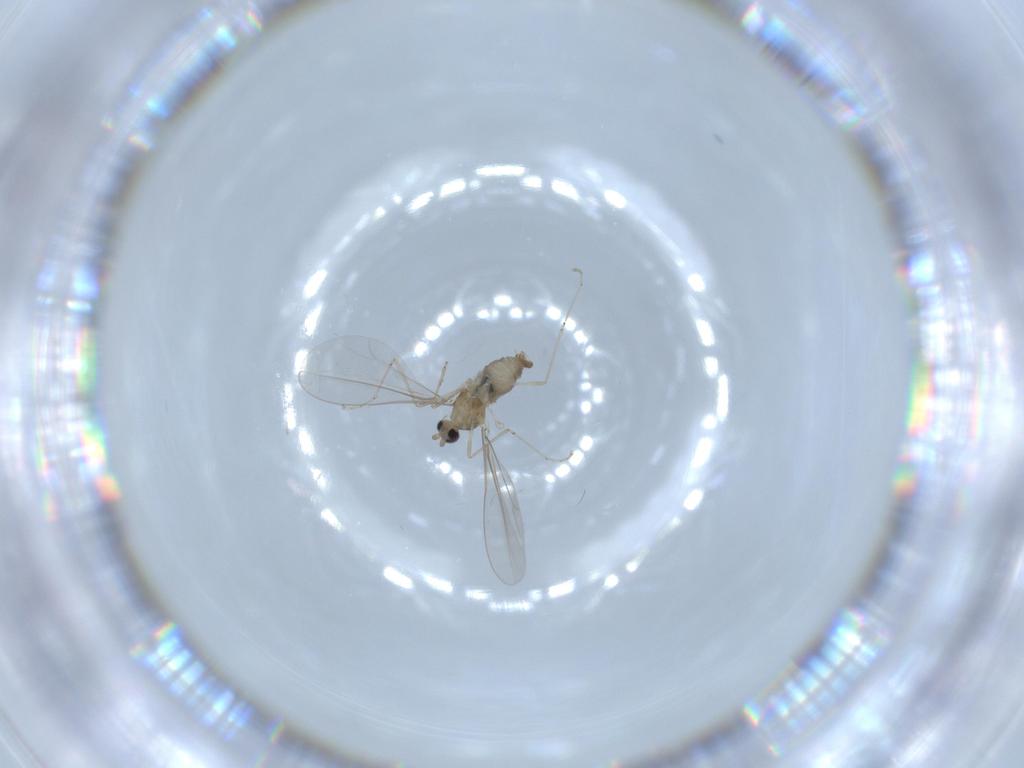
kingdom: Animalia
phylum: Arthropoda
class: Insecta
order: Diptera
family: Cecidomyiidae
